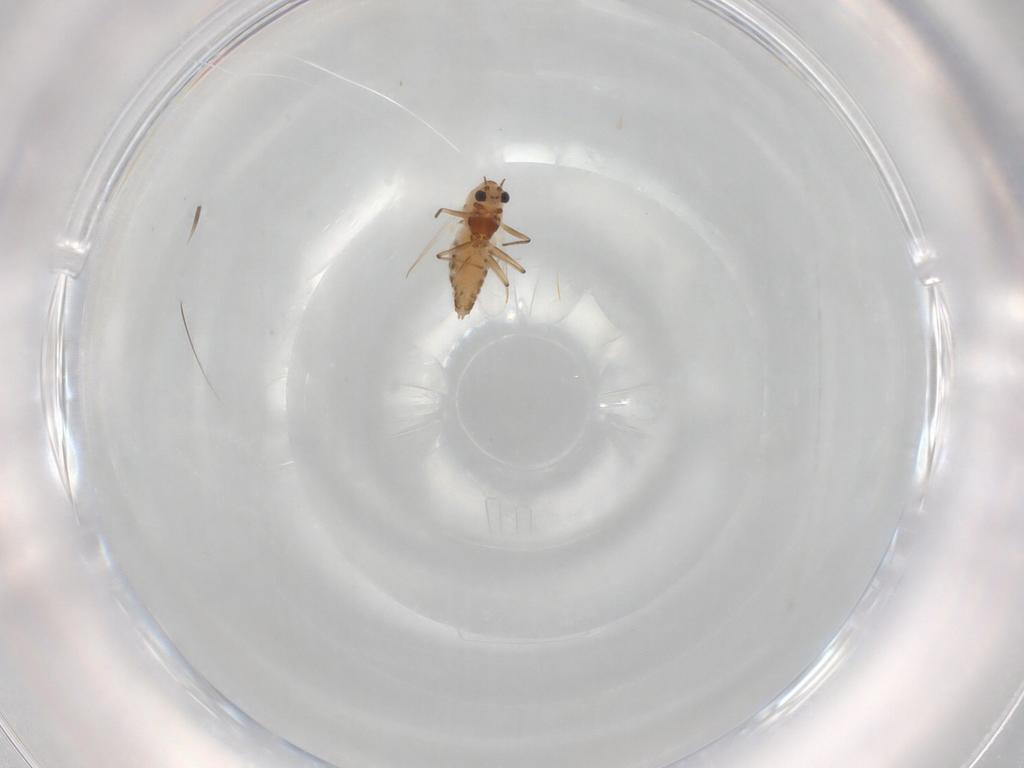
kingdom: Animalia
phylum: Arthropoda
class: Insecta
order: Diptera
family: Chironomidae
